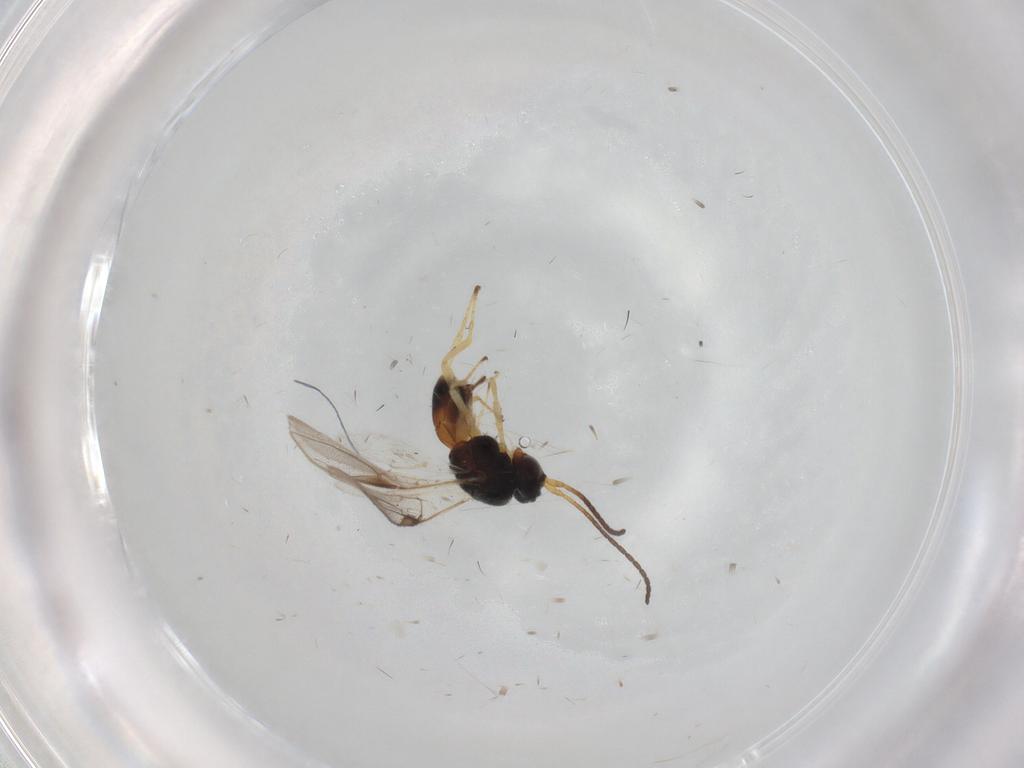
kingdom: Animalia
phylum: Arthropoda
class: Insecta
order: Hymenoptera
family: Braconidae
